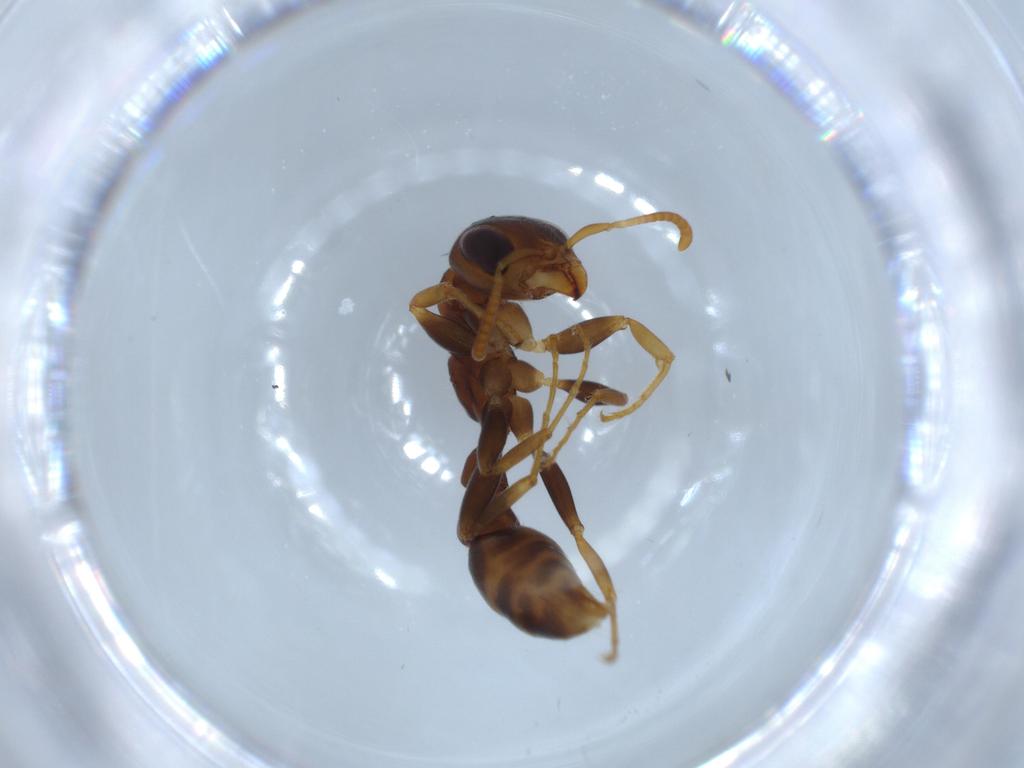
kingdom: Animalia
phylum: Arthropoda
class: Insecta
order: Hymenoptera
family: Formicidae
